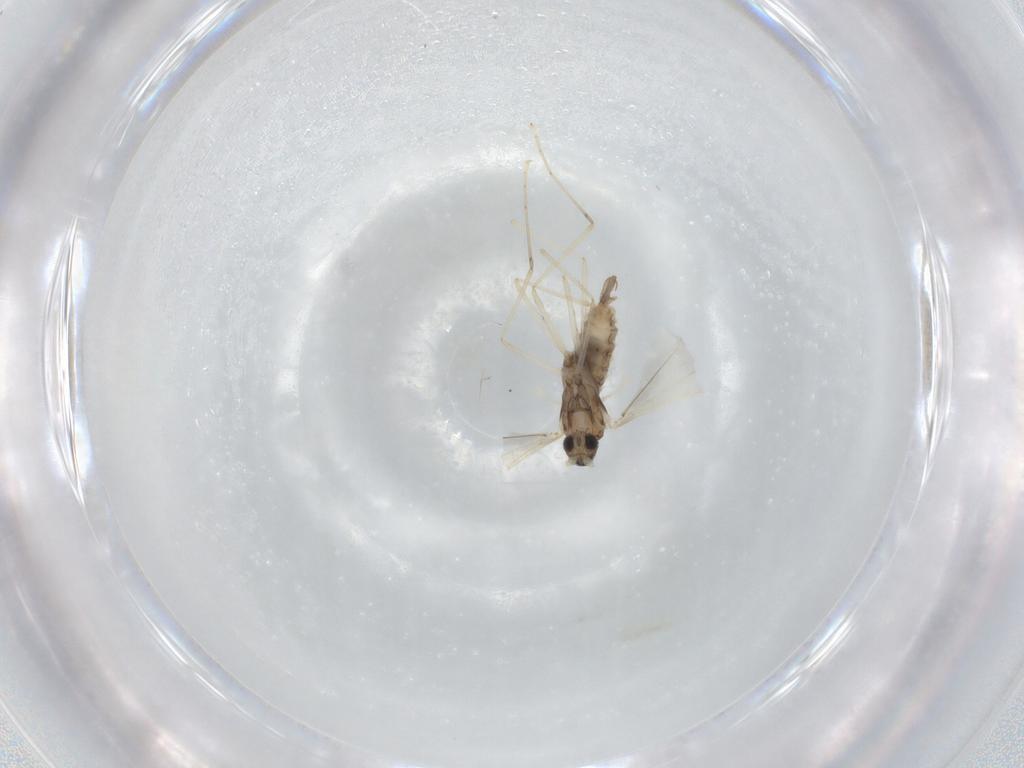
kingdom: Animalia
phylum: Arthropoda
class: Insecta
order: Diptera
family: Cecidomyiidae
